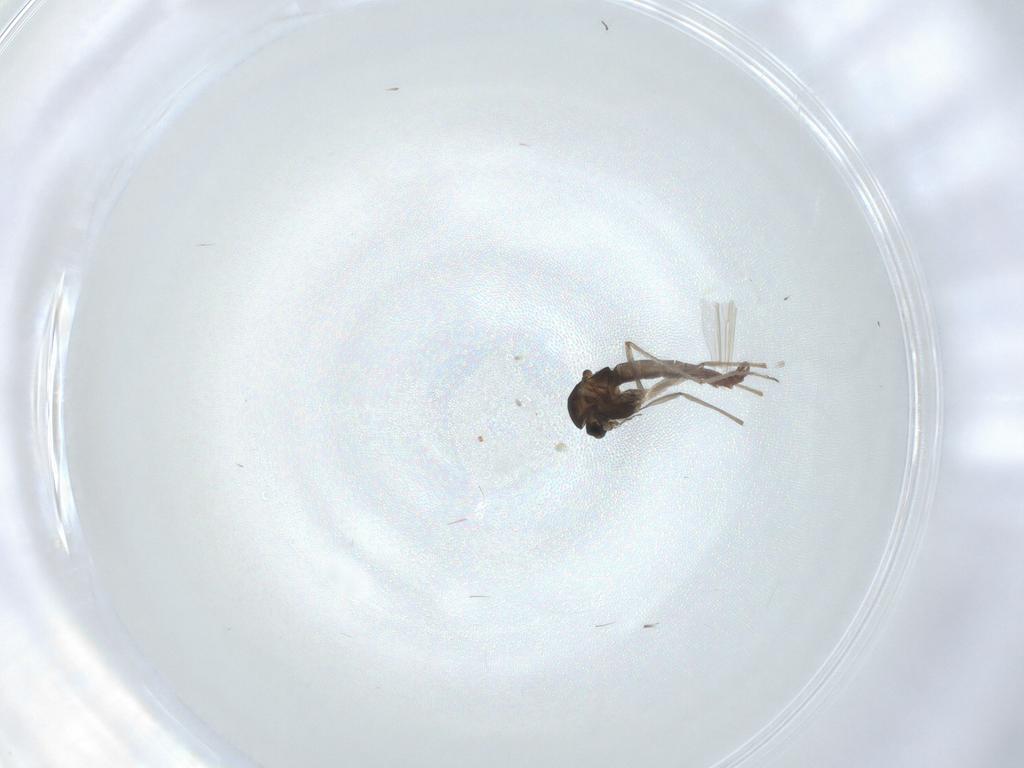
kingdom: Animalia
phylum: Arthropoda
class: Insecta
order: Diptera
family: Chironomidae
